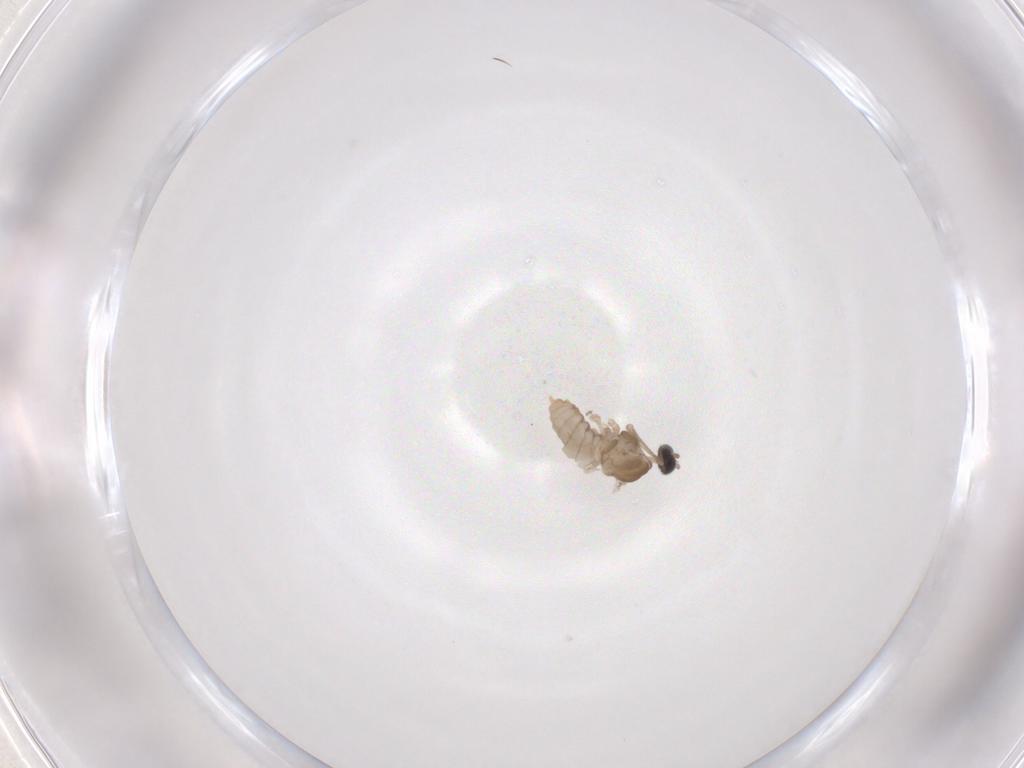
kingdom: Animalia
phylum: Arthropoda
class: Insecta
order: Diptera
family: Cecidomyiidae
